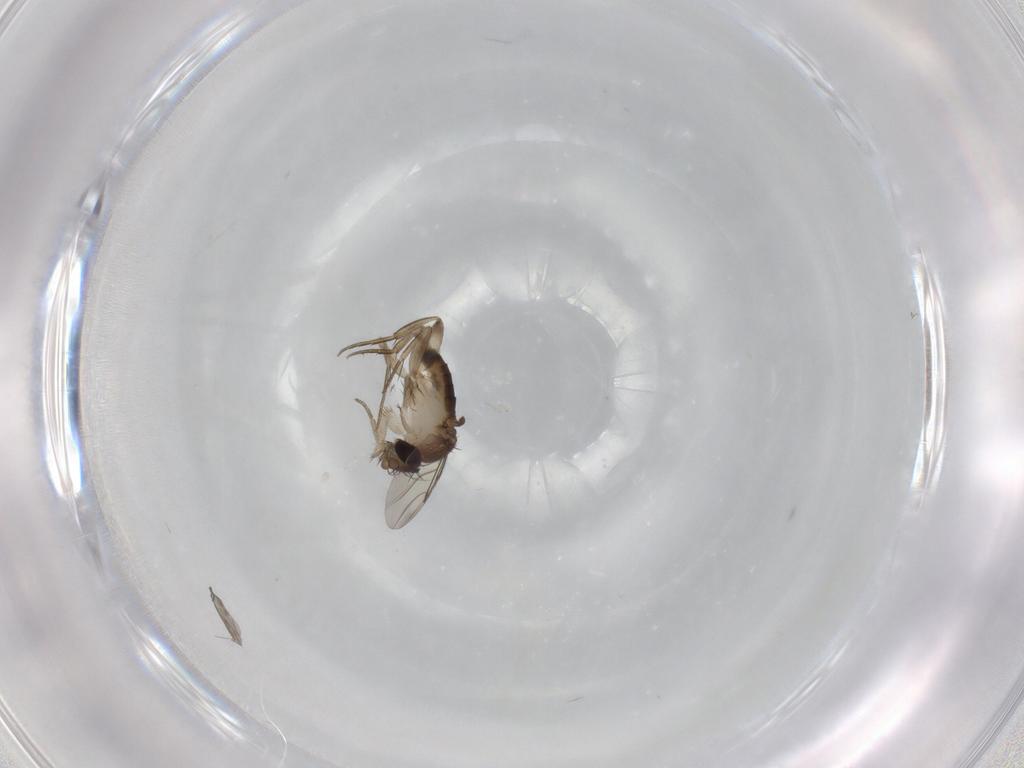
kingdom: Animalia
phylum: Arthropoda
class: Insecta
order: Diptera
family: Phoridae
